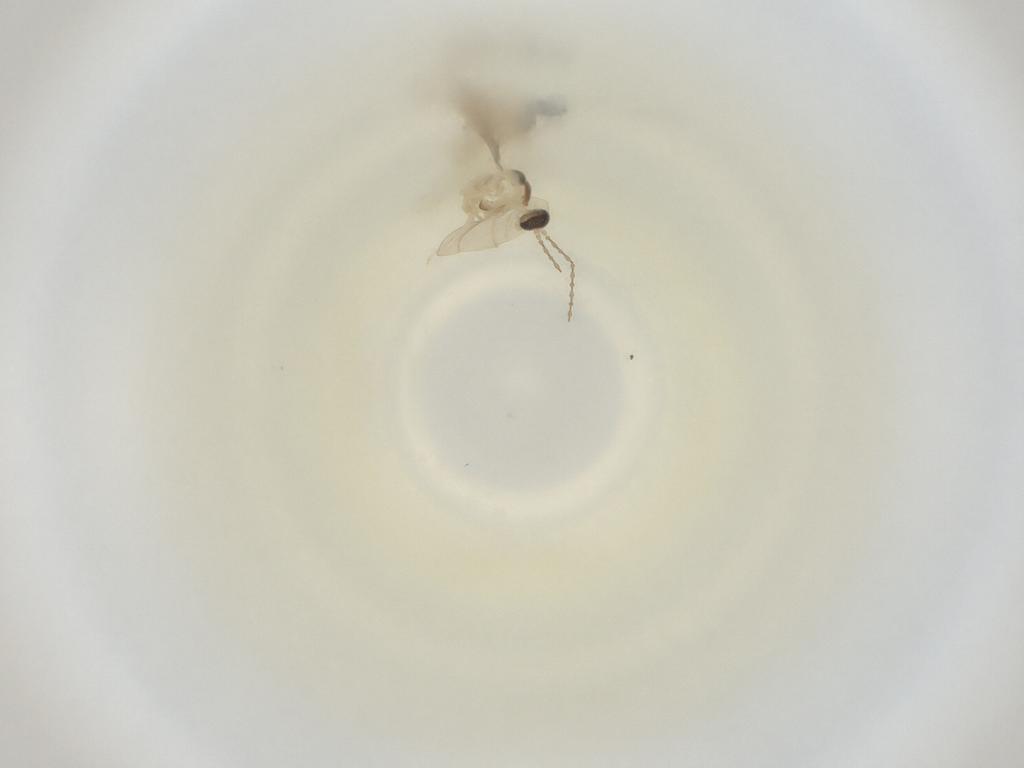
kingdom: Animalia
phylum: Arthropoda
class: Insecta
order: Diptera
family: Cecidomyiidae
